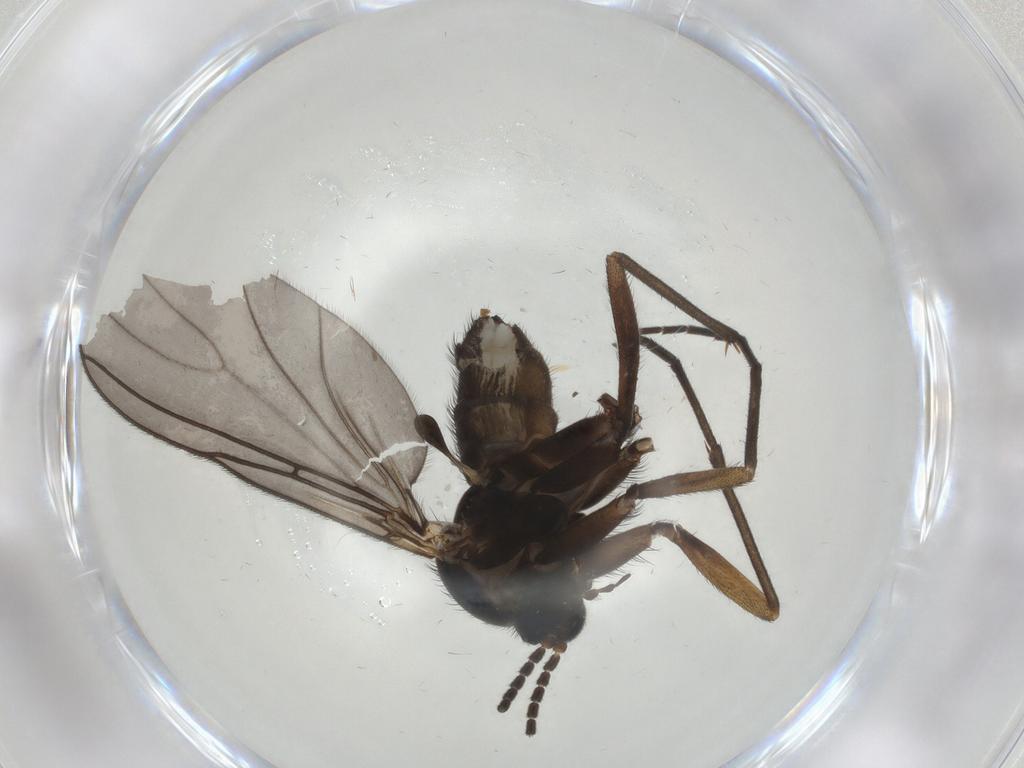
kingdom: Animalia
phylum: Arthropoda
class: Insecta
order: Diptera
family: Sciaridae
